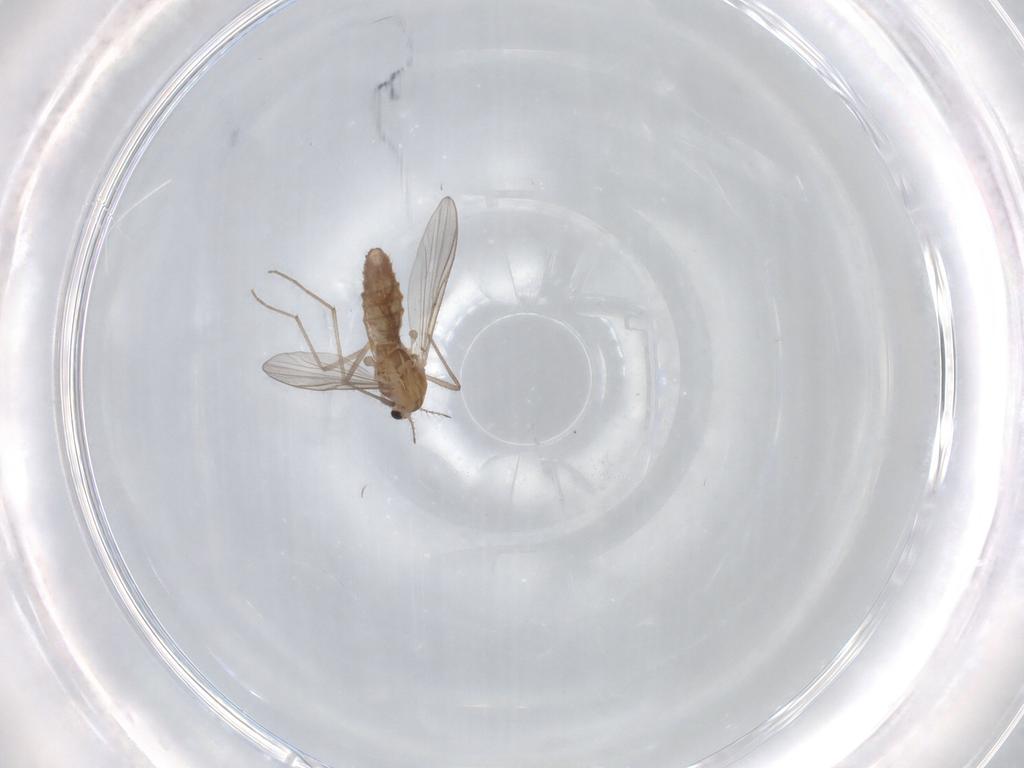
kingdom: Animalia
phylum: Arthropoda
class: Insecta
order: Diptera
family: Chironomidae
